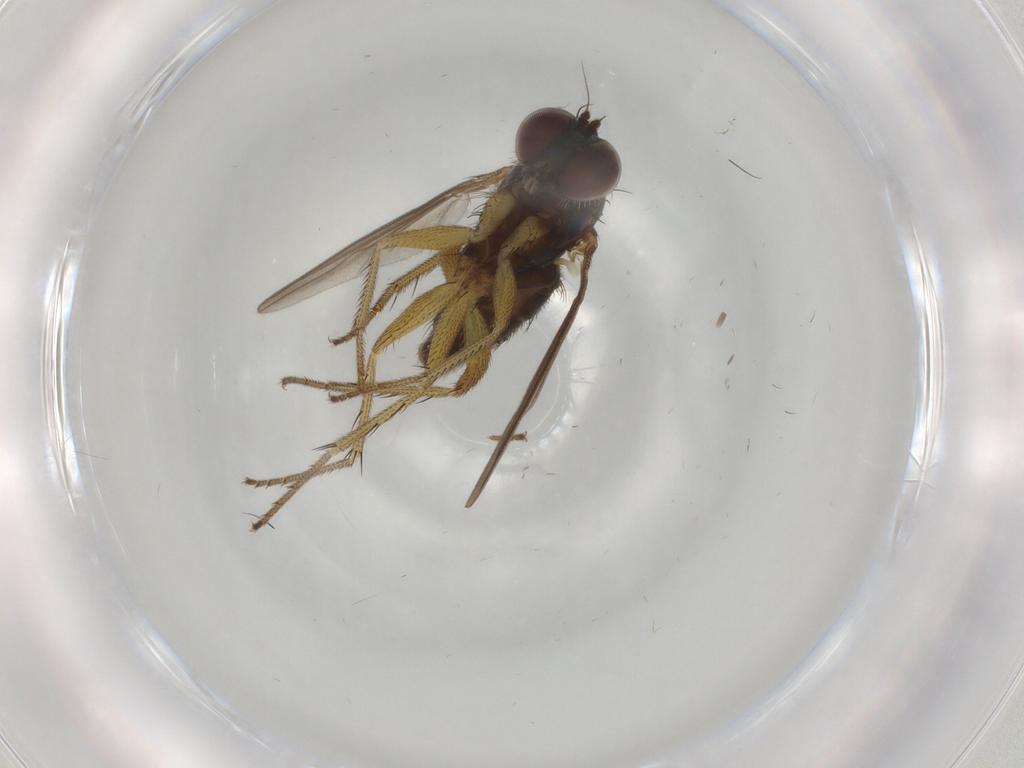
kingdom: Animalia
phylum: Arthropoda
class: Insecta
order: Diptera
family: Dolichopodidae
